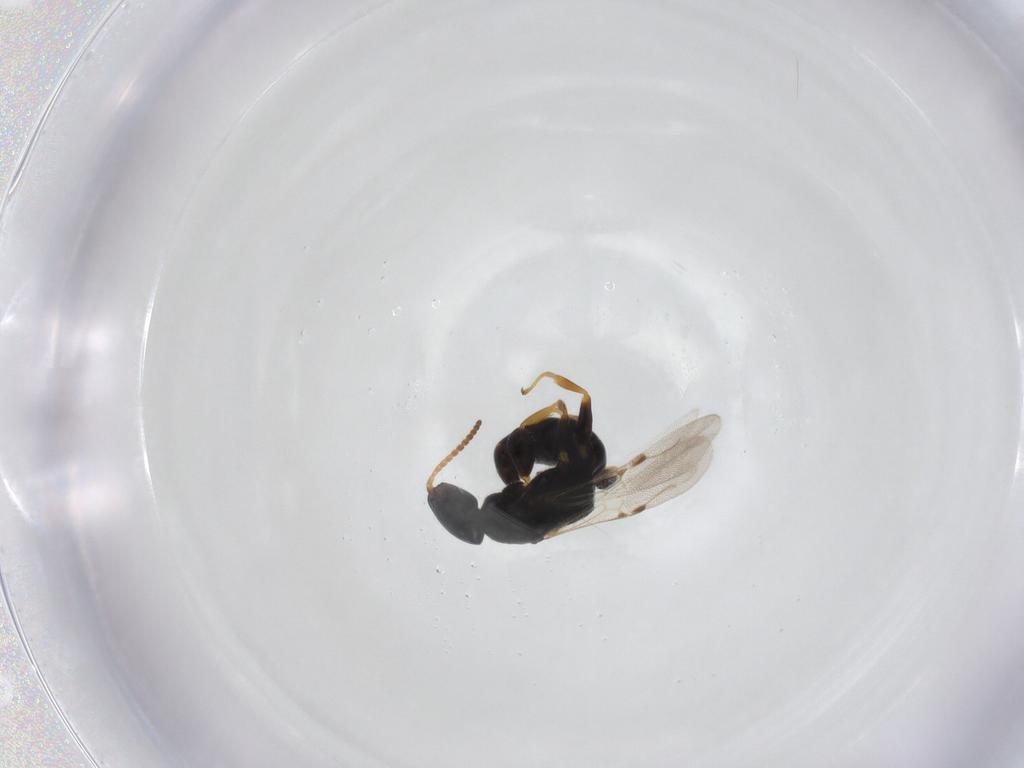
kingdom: Animalia
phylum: Arthropoda
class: Insecta
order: Hymenoptera
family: Bethylidae
